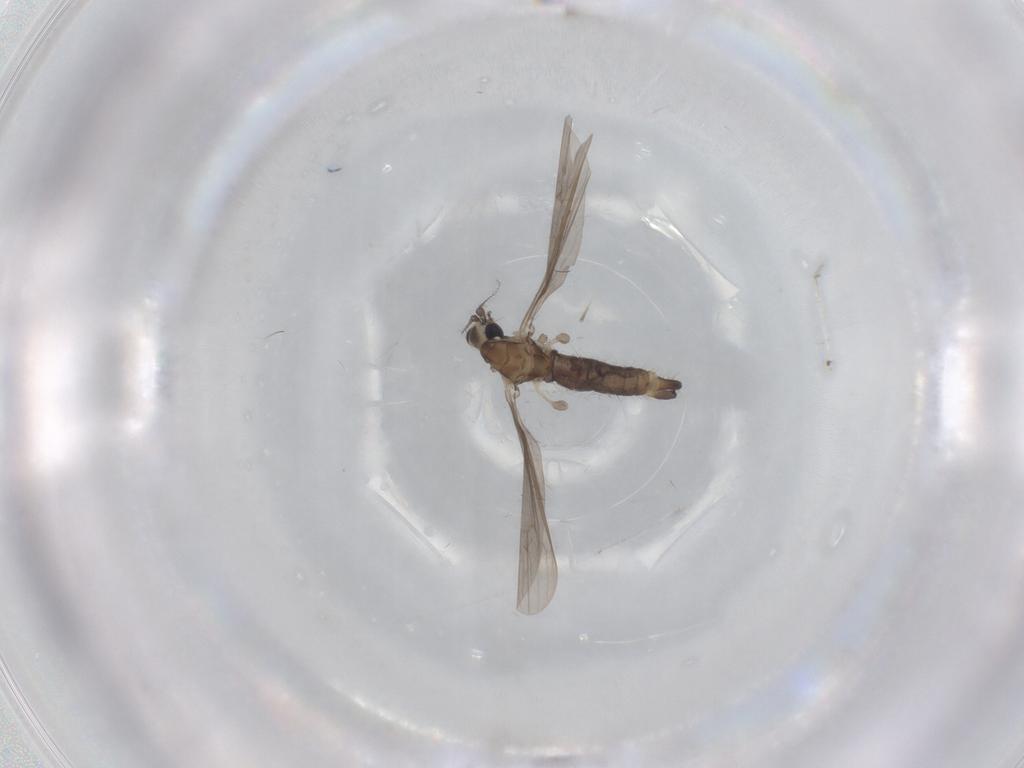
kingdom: Animalia
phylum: Arthropoda
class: Insecta
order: Diptera
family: Limoniidae
